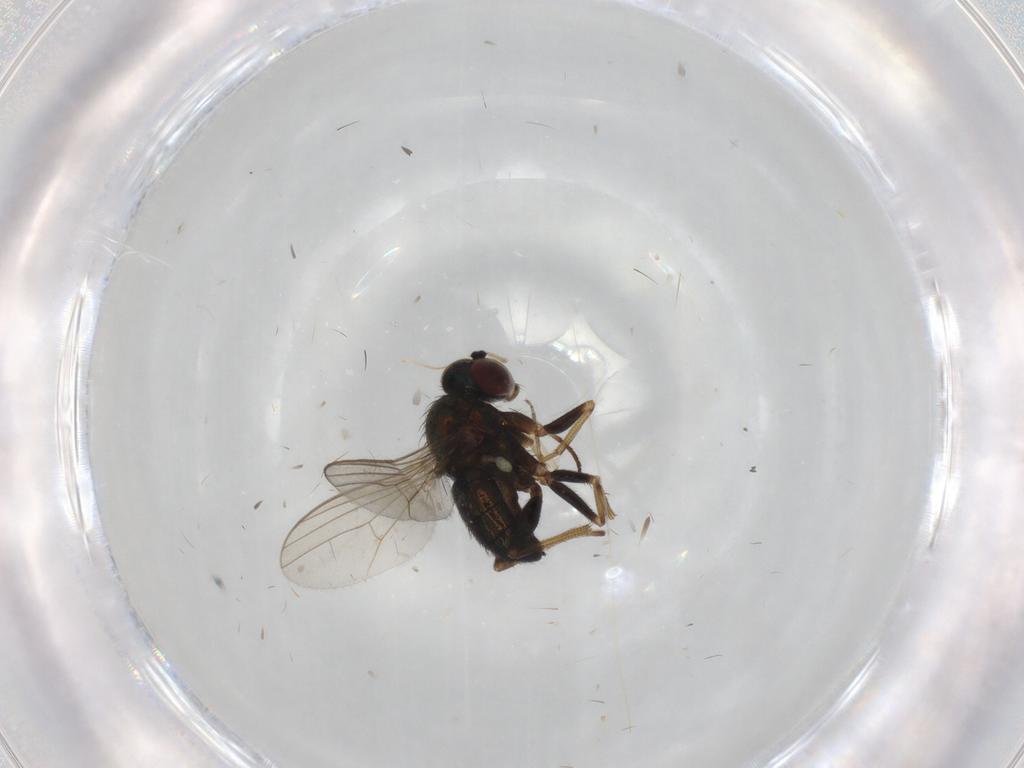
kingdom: Animalia
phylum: Arthropoda
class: Insecta
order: Diptera
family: Dolichopodidae
